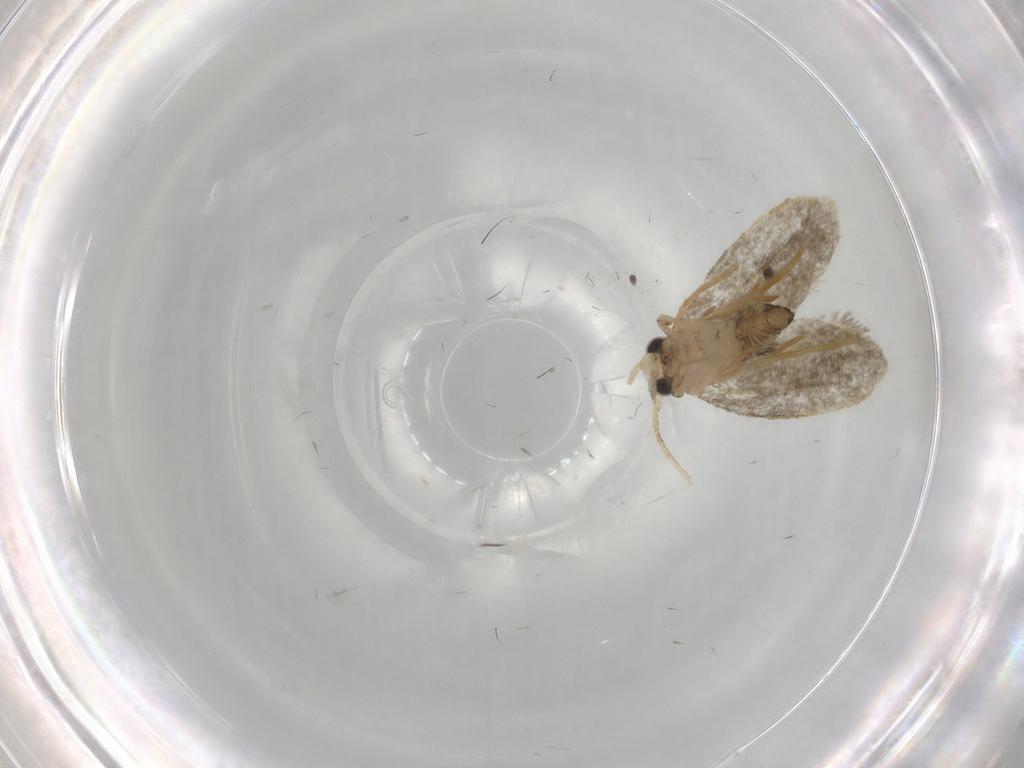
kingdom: Animalia
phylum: Arthropoda
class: Insecta
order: Lepidoptera
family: Psychidae
